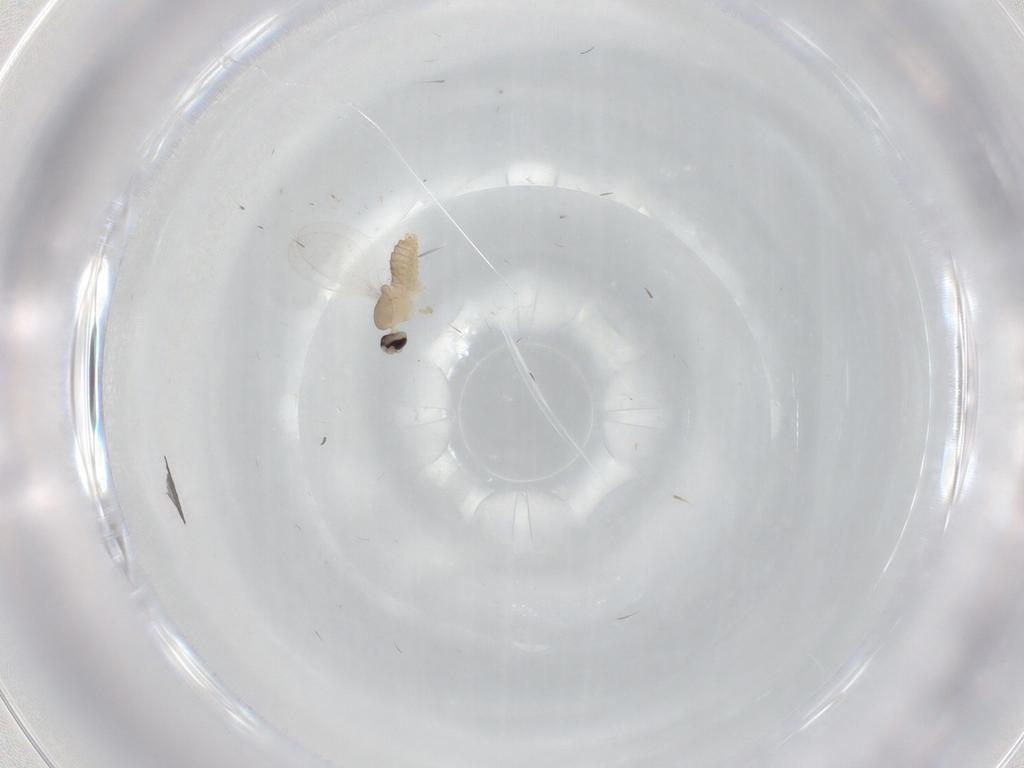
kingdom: Animalia
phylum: Arthropoda
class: Insecta
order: Diptera
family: Cecidomyiidae
